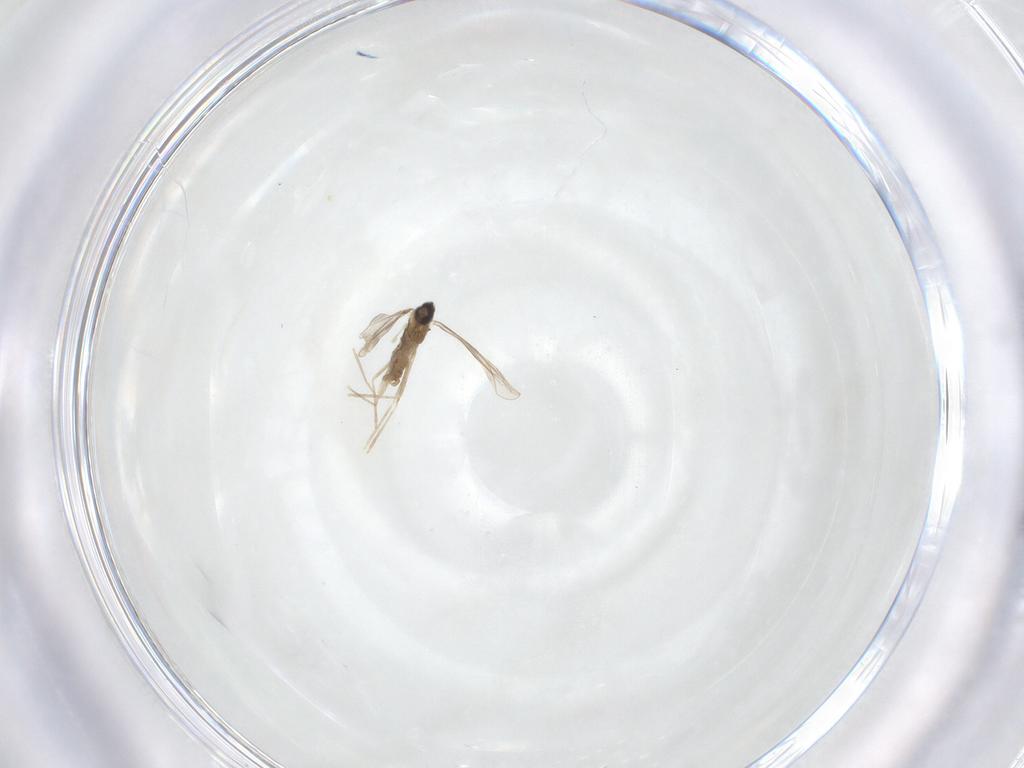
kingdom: Animalia
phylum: Arthropoda
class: Insecta
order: Diptera
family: Cecidomyiidae
